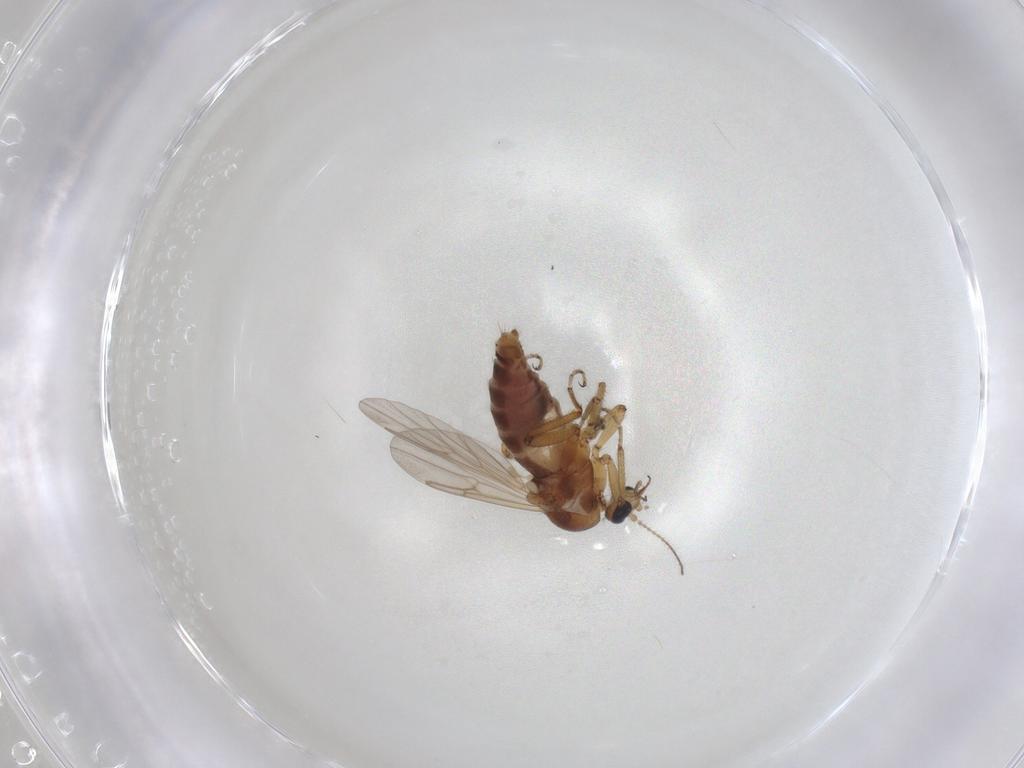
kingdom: Animalia
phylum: Arthropoda
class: Insecta
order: Diptera
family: Ceratopogonidae
